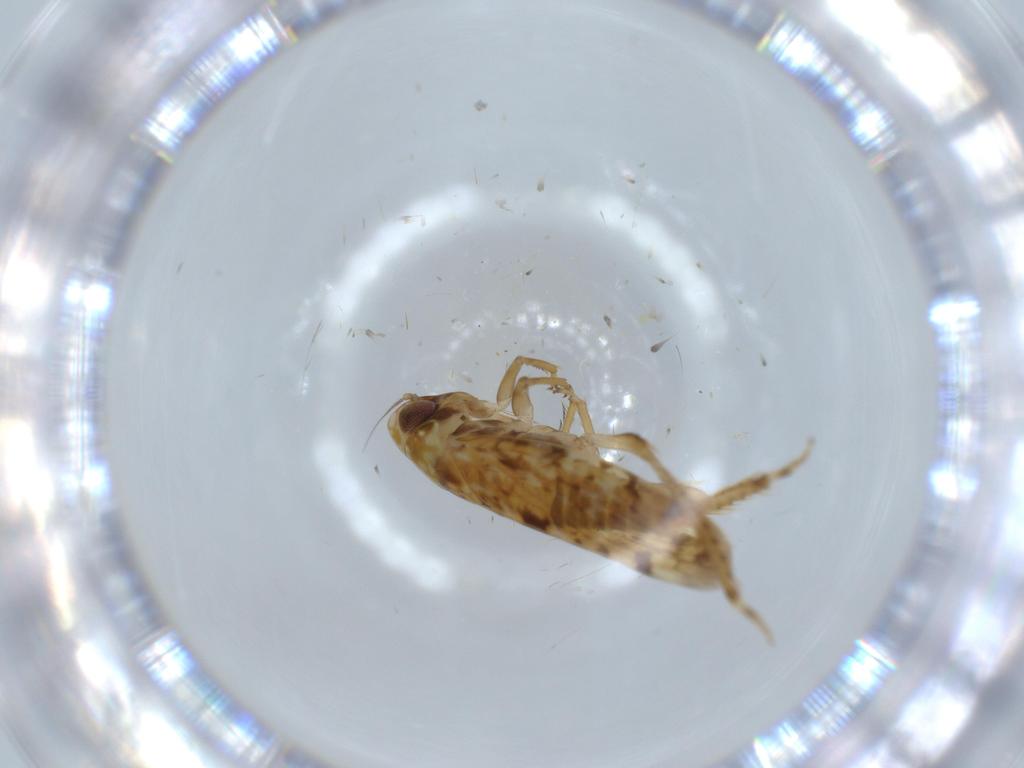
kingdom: Animalia
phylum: Arthropoda
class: Insecta
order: Hemiptera
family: Cicadellidae
